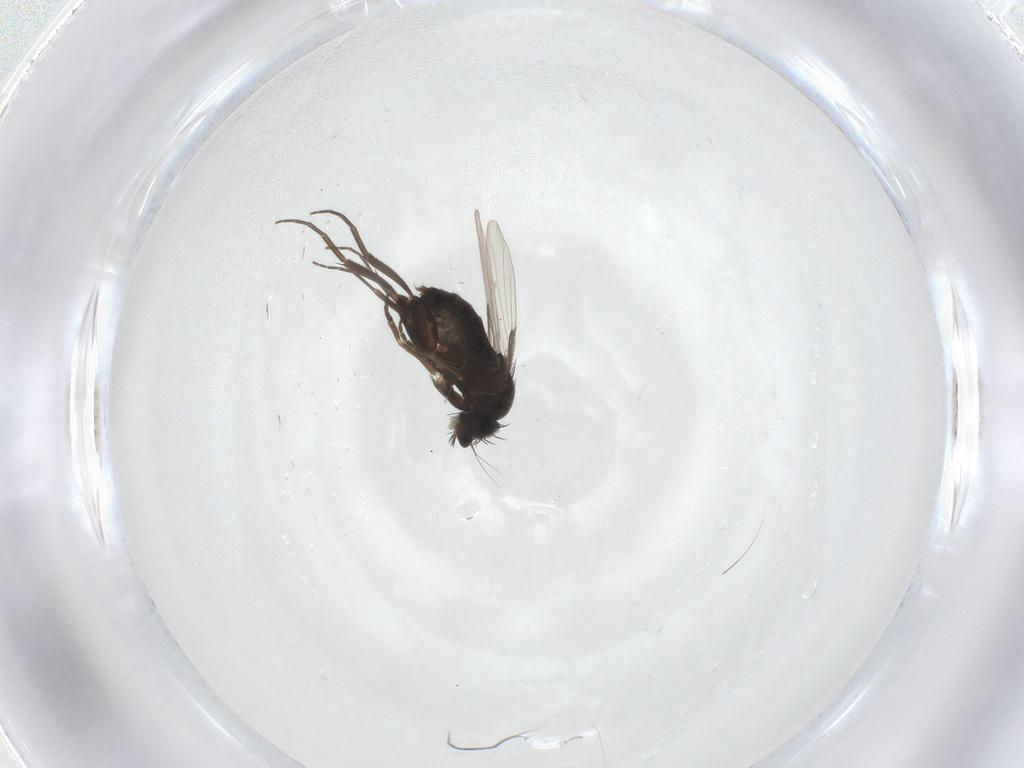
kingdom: Animalia
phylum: Arthropoda
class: Insecta
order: Diptera
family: Phoridae
